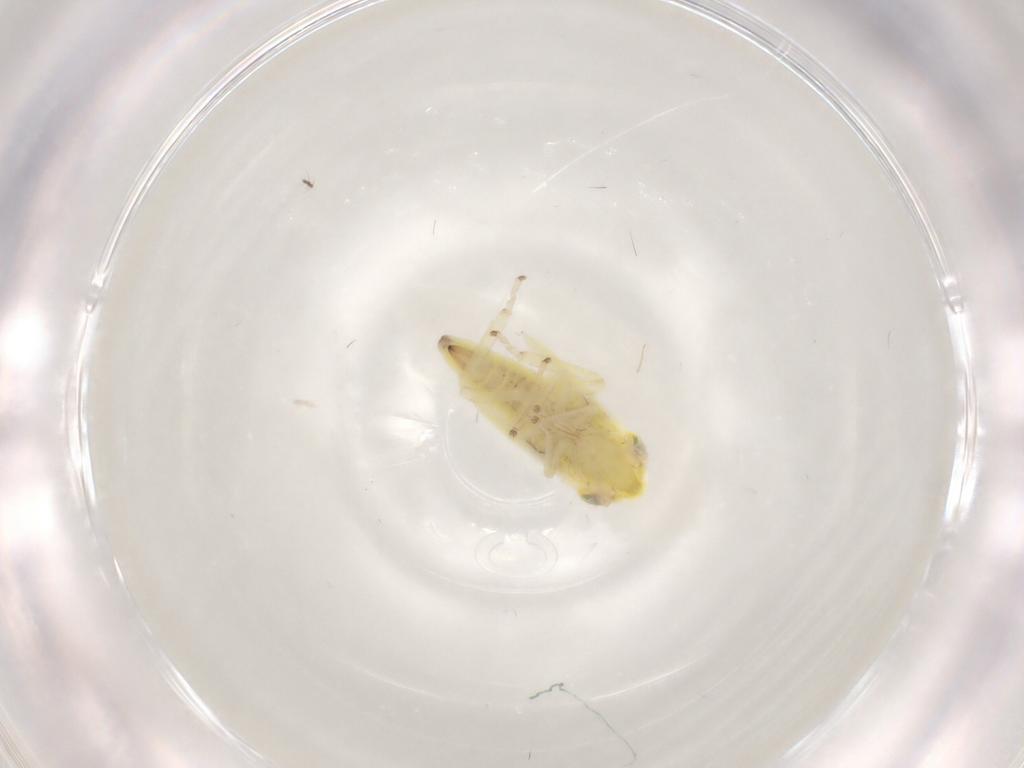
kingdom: Animalia
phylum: Arthropoda
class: Insecta
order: Hemiptera
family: Cicadellidae
